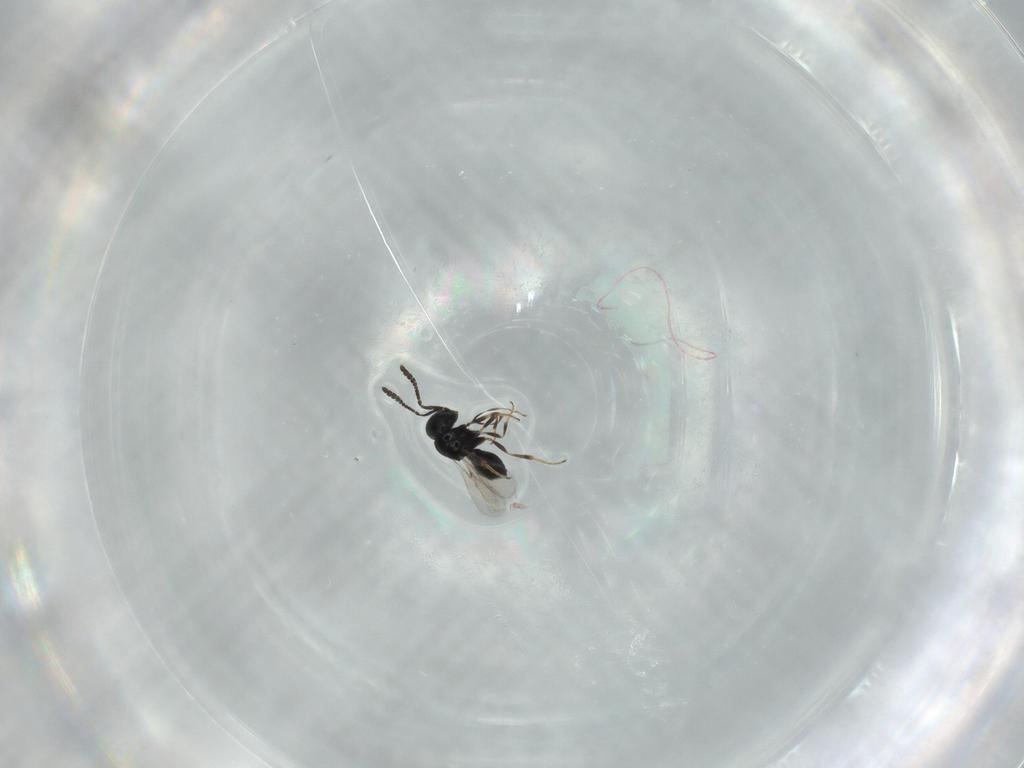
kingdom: Animalia
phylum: Arthropoda
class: Insecta
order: Hymenoptera
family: Scelionidae
